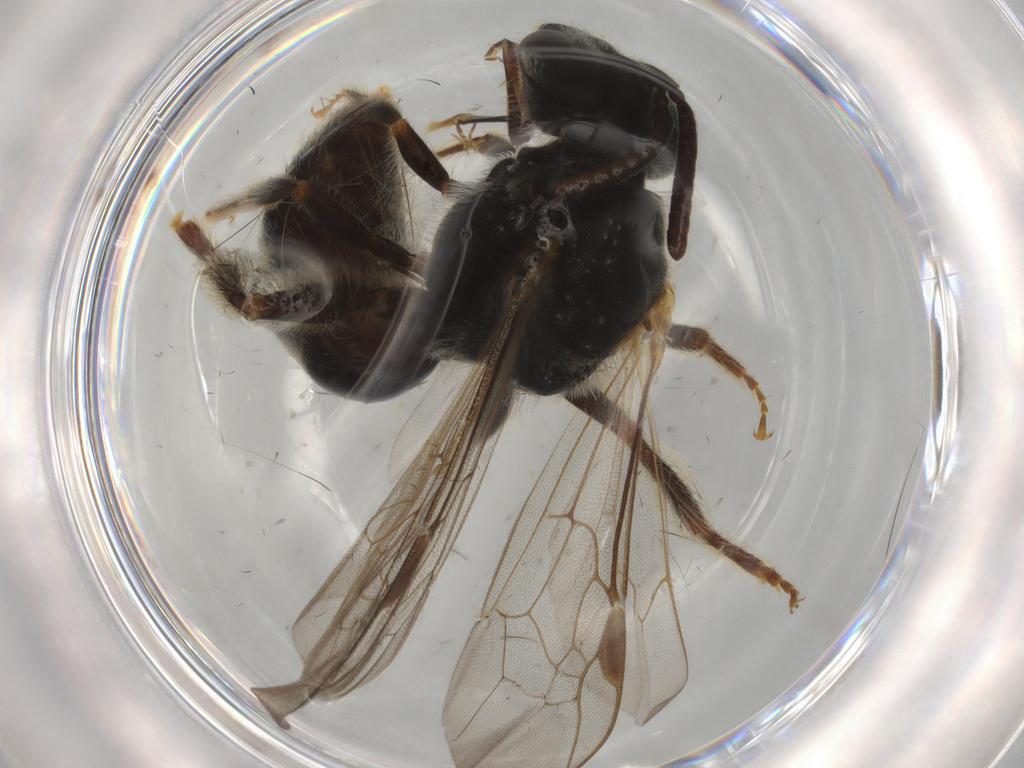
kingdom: Animalia
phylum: Arthropoda
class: Insecta
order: Hymenoptera
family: Halictidae
